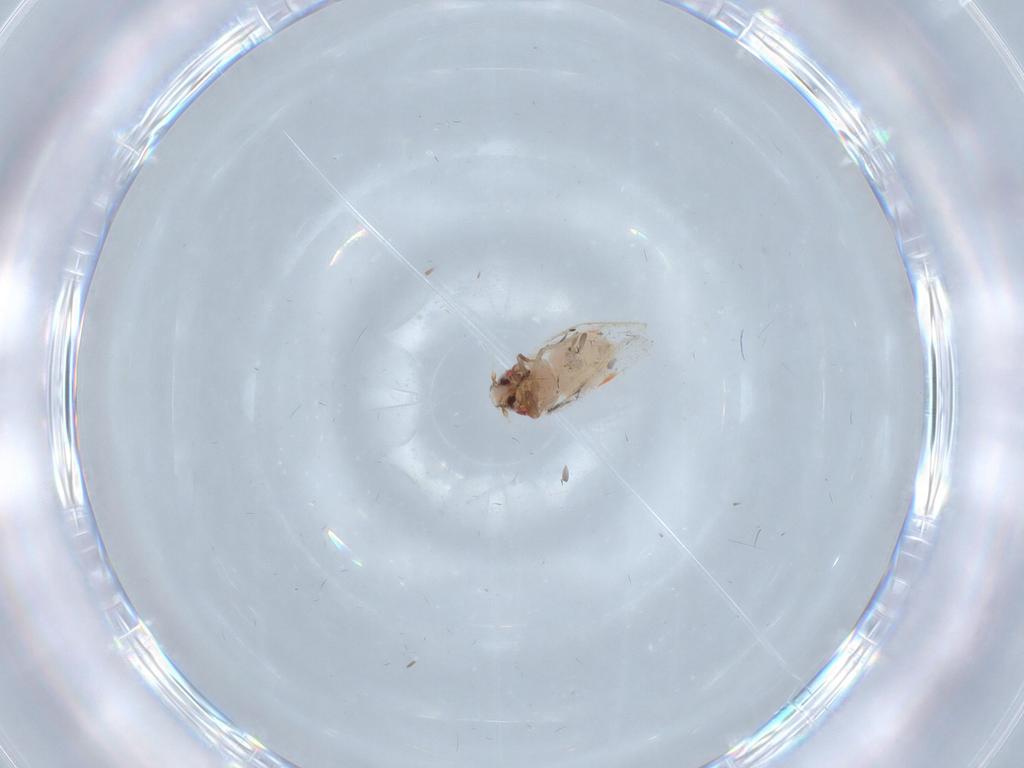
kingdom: Animalia
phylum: Arthropoda
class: Insecta
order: Hemiptera
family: Aleyrodidae
